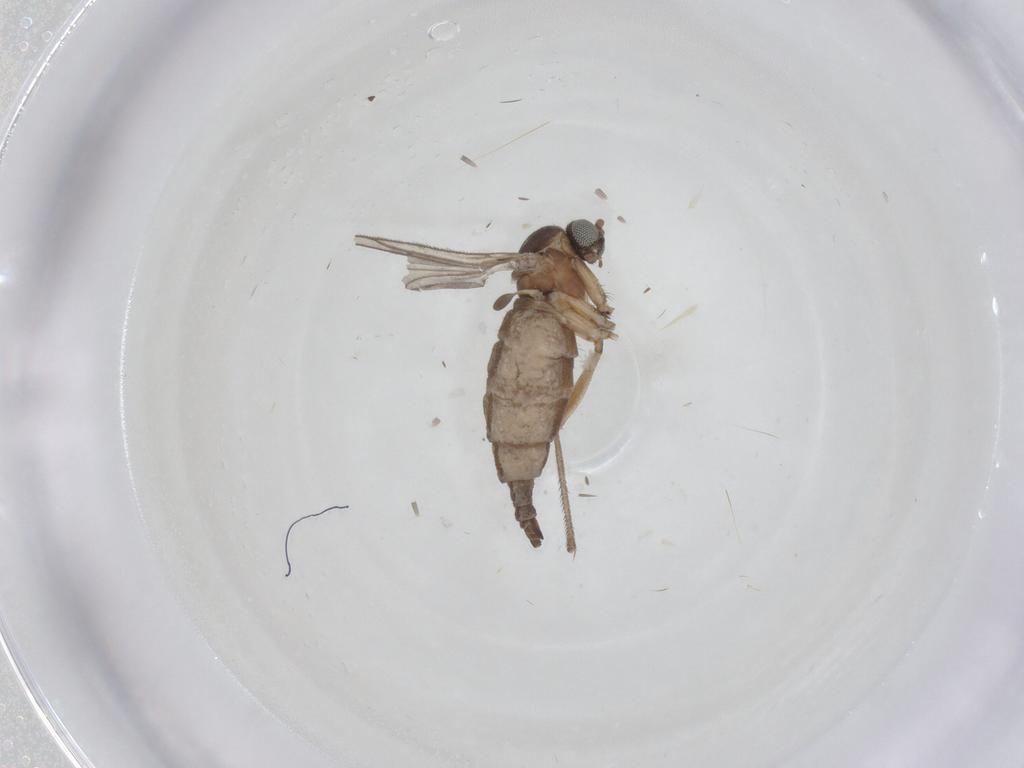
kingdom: Animalia
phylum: Arthropoda
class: Insecta
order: Diptera
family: Sciaridae
